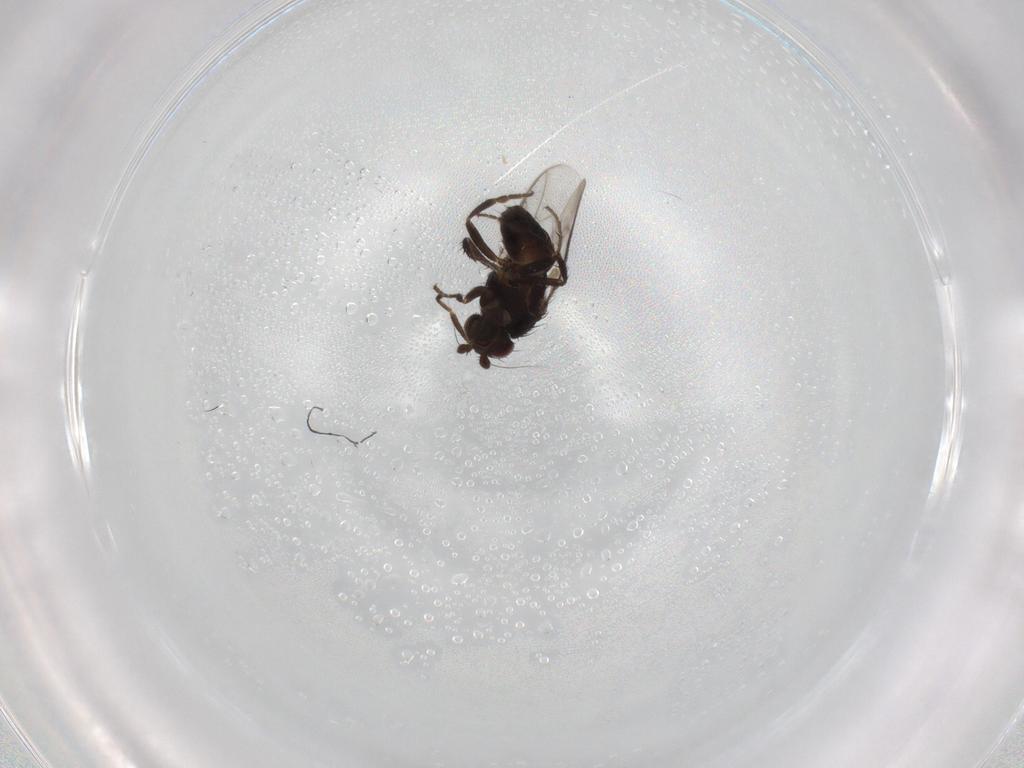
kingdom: Animalia
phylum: Arthropoda
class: Insecta
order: Diptera
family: Sphaeroceridae
